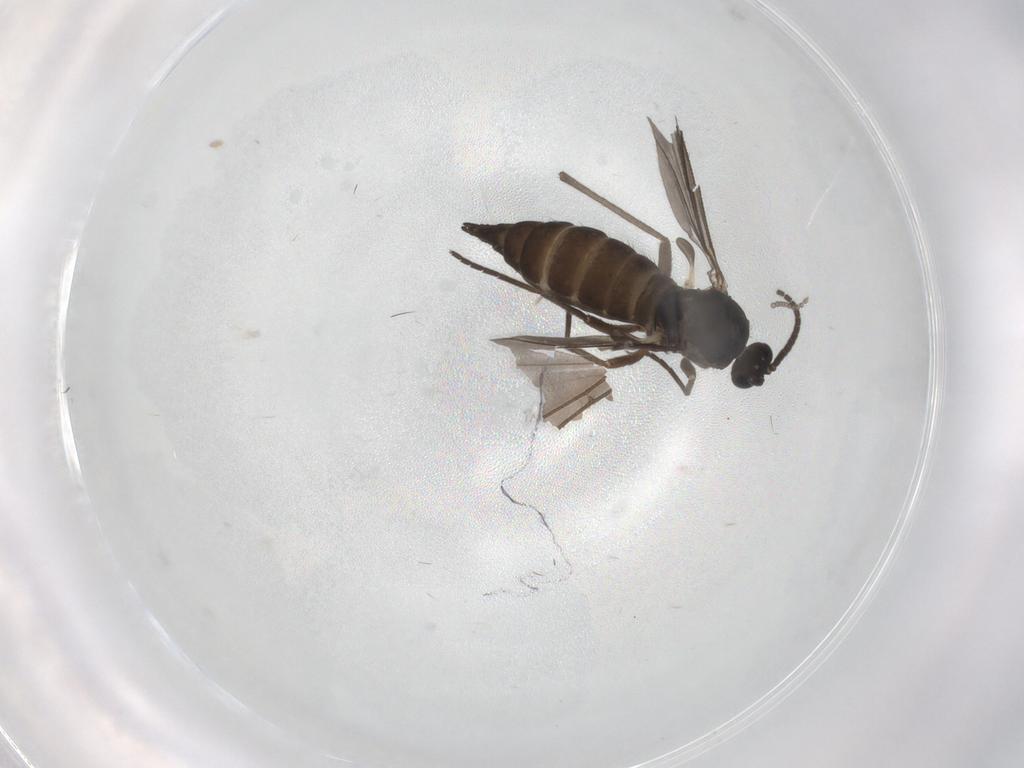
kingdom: Animalia
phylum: Arthropoda
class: Insecta
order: Diptera
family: Sciaridae
